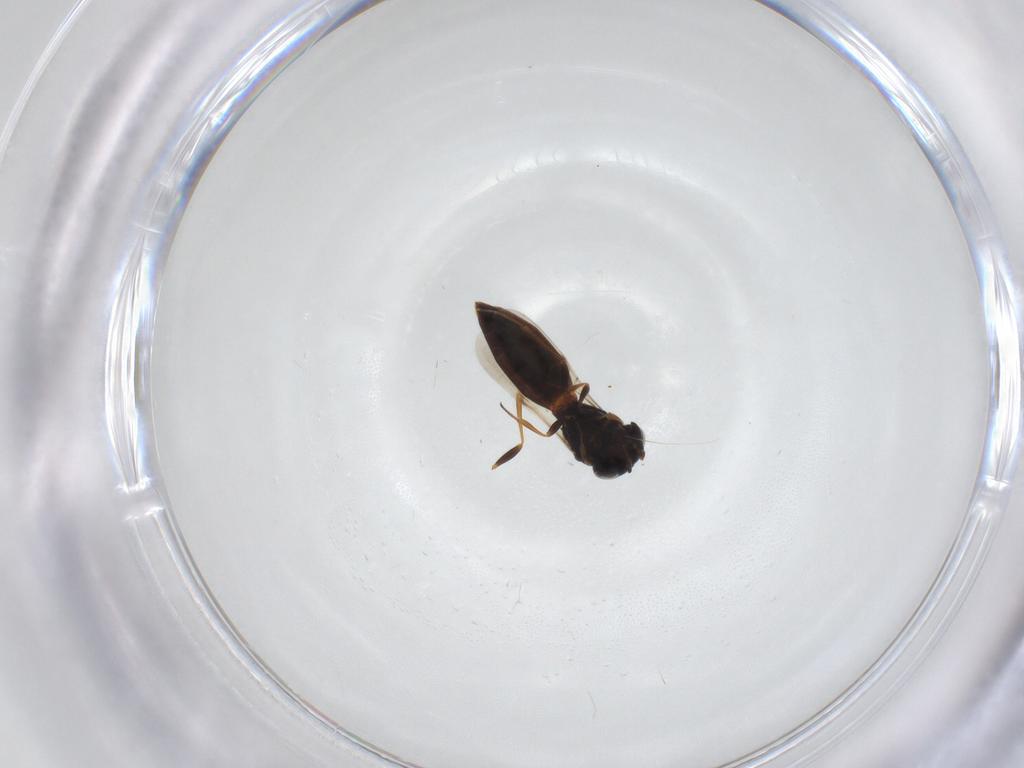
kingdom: Animalia
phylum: Arthropoda
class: Insecta
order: Hymenoptera
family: Scelionidae
